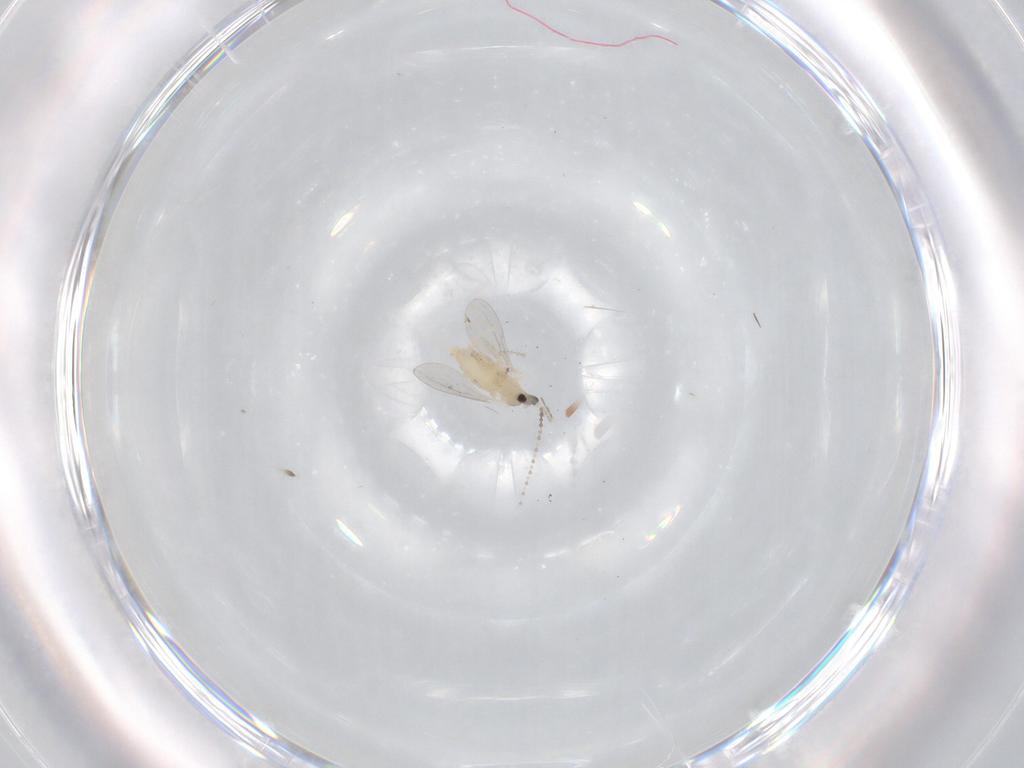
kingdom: Animalia
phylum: Arthropoda
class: Insecta
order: Diptera
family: Cecidomyiidae
